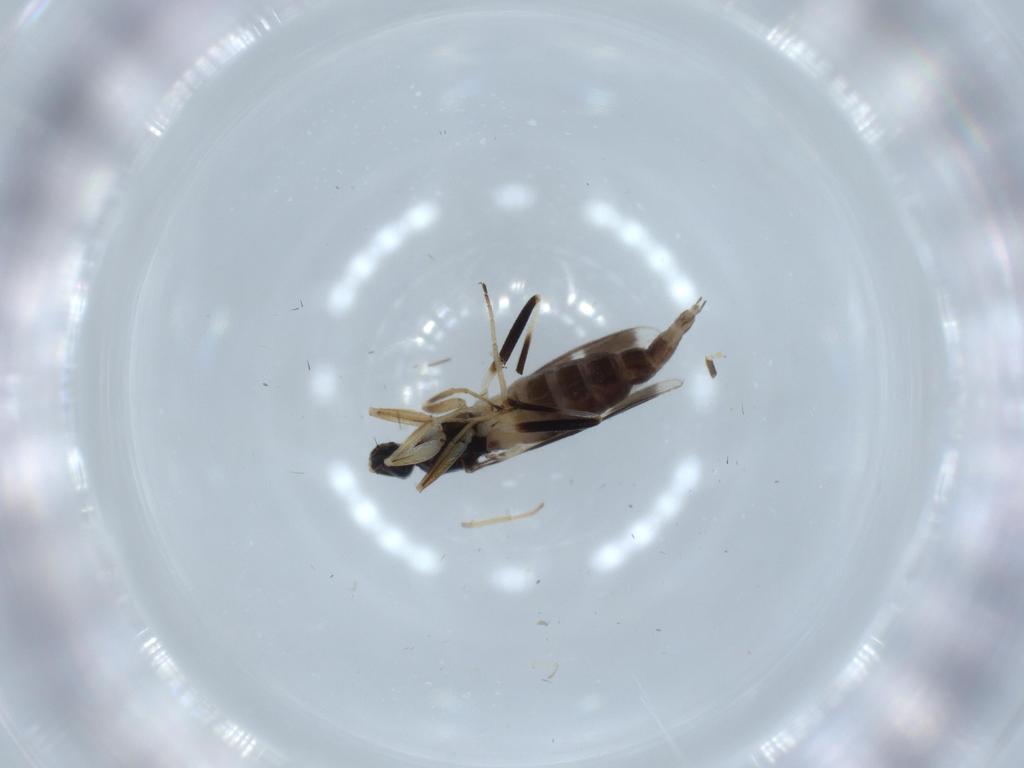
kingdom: Animalia
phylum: Arthropoda
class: Insecta
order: Diptera
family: Hybotidae
